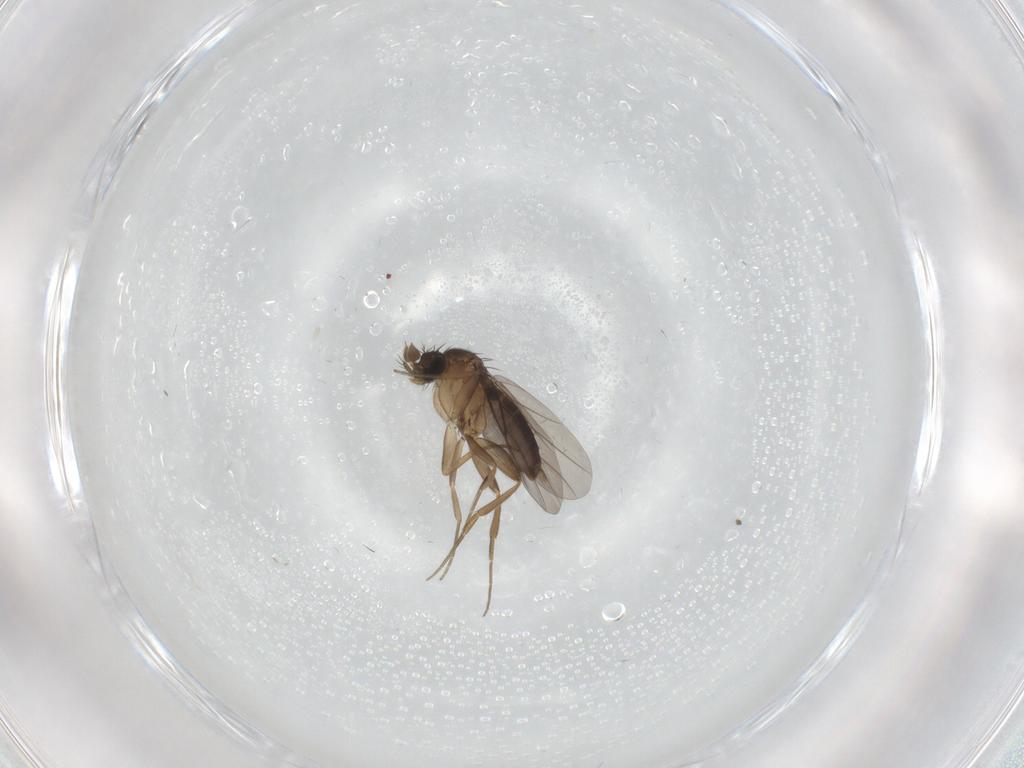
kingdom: Animalia
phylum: Arthropoda
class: Insecta
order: Diptera
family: Phoridae
